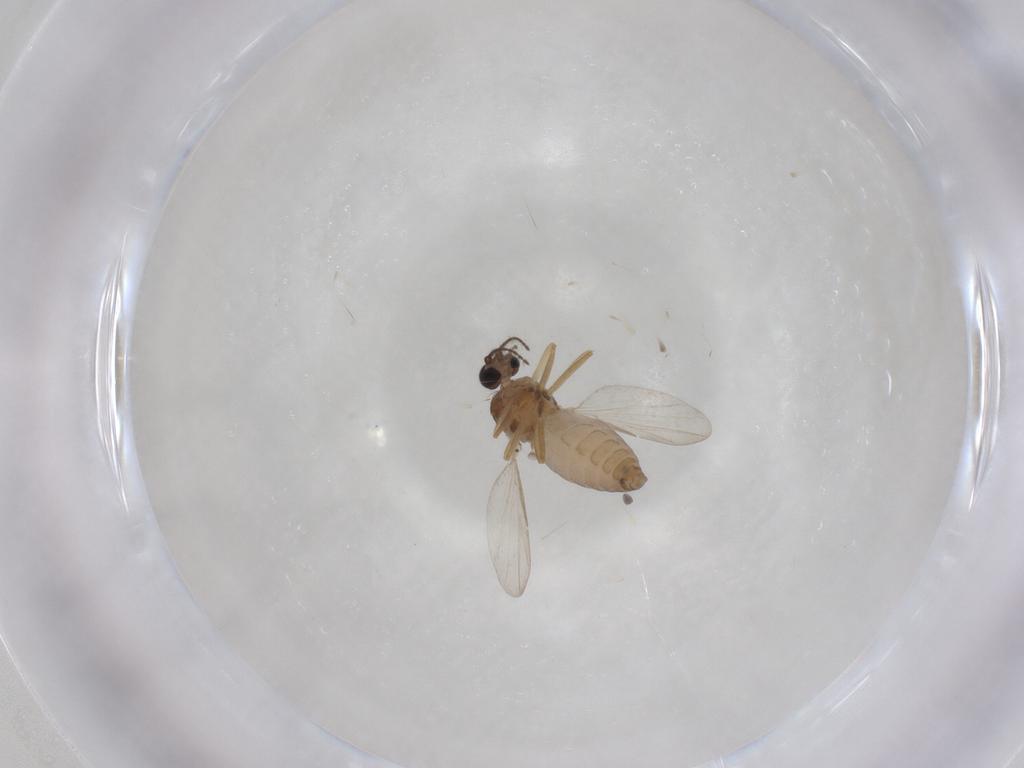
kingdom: Animalia
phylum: Arthropoda
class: Insecta
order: Diptera
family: Ceratopogonidae
